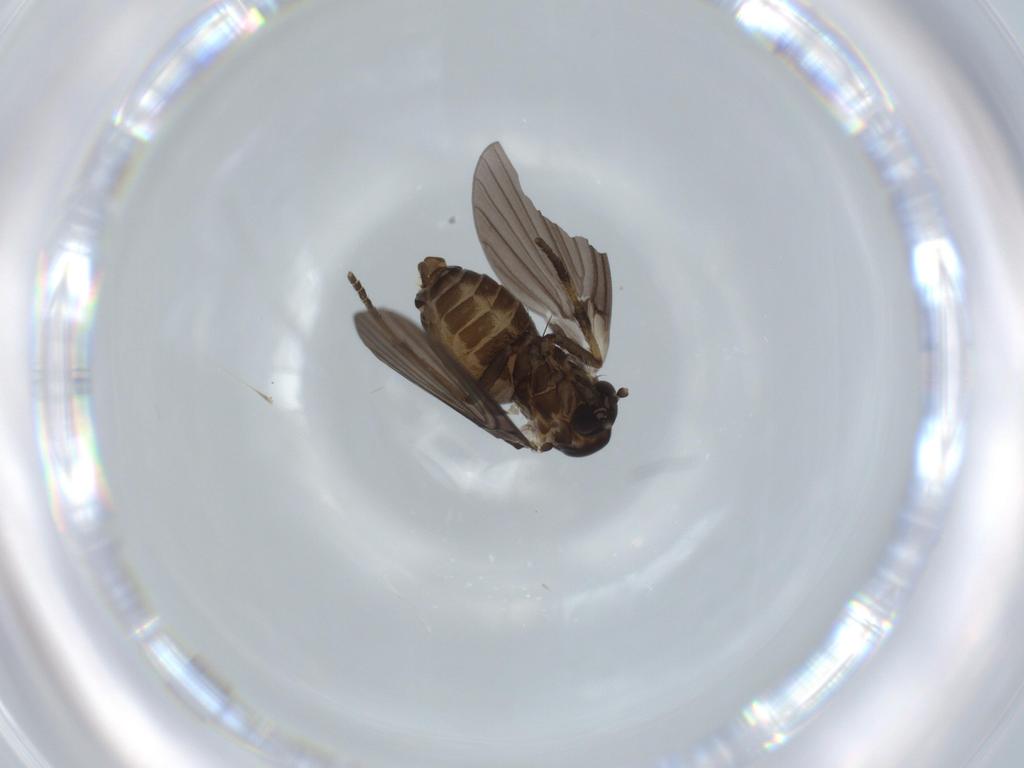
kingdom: Animalia
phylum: Arthropoda
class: Insecta
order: Diptera
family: Psychodidae
